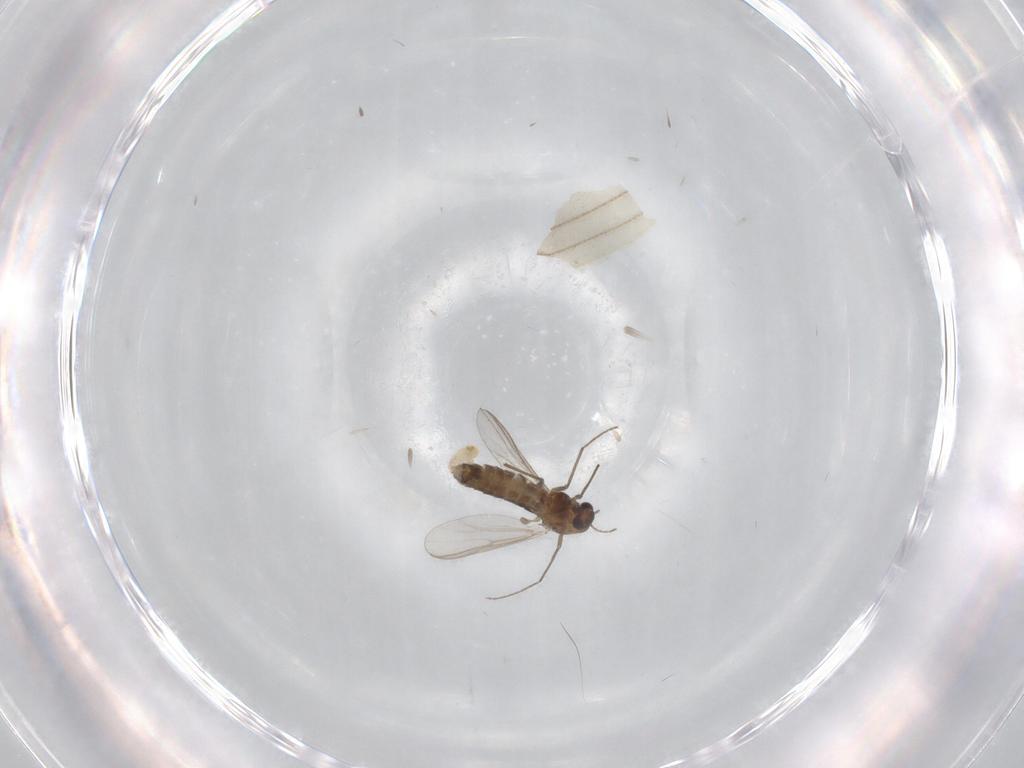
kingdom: Animalia
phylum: Arthropoda
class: Insecta
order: Diptera
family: Chironomidae
